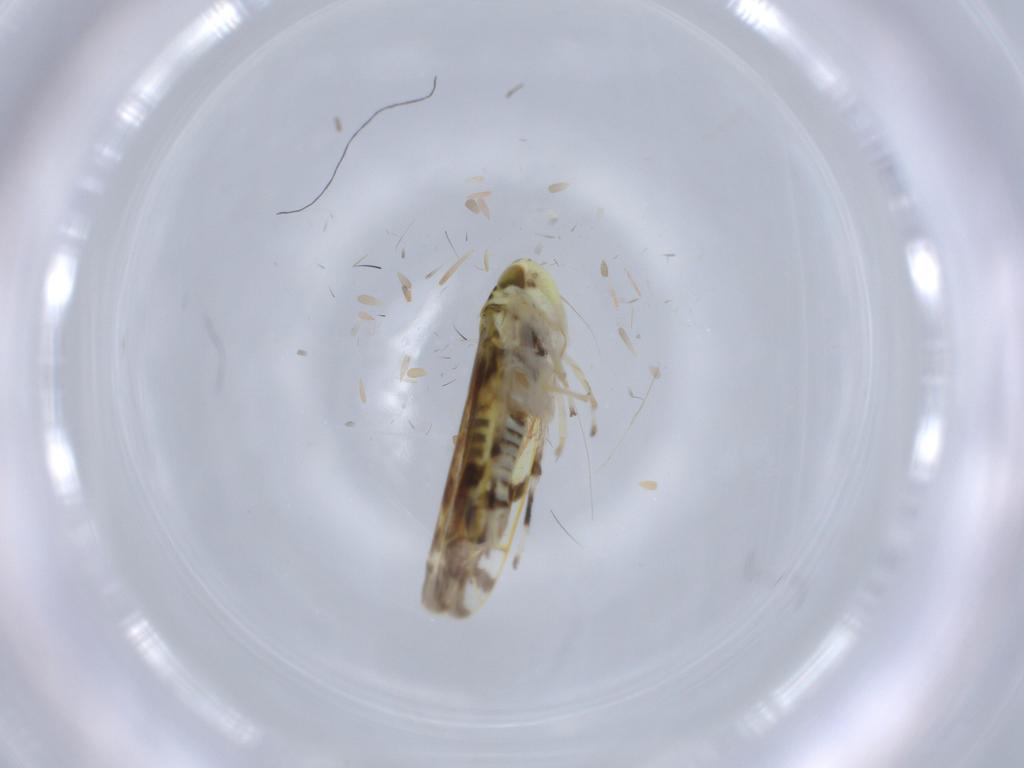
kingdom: Animalia
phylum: Arthropoda
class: Insecta
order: Hemiptera
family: Cicadellidae
